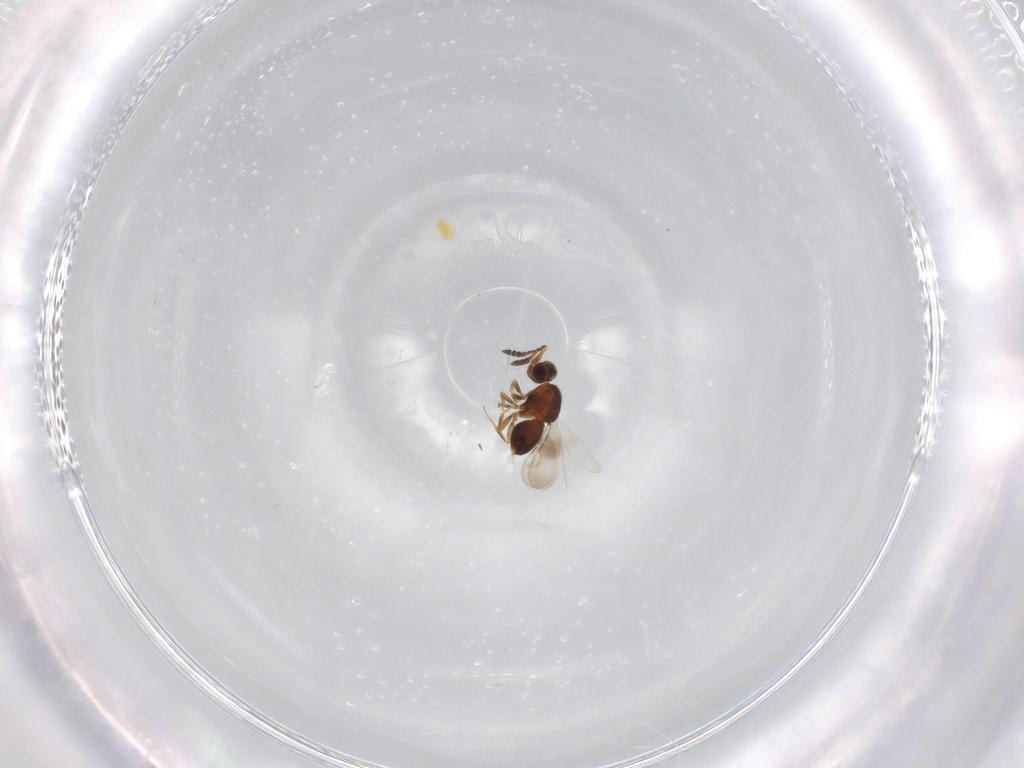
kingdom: Animalia
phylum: Arthropoda
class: Insecta
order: Hymenoptera
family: Ceraphronidae
